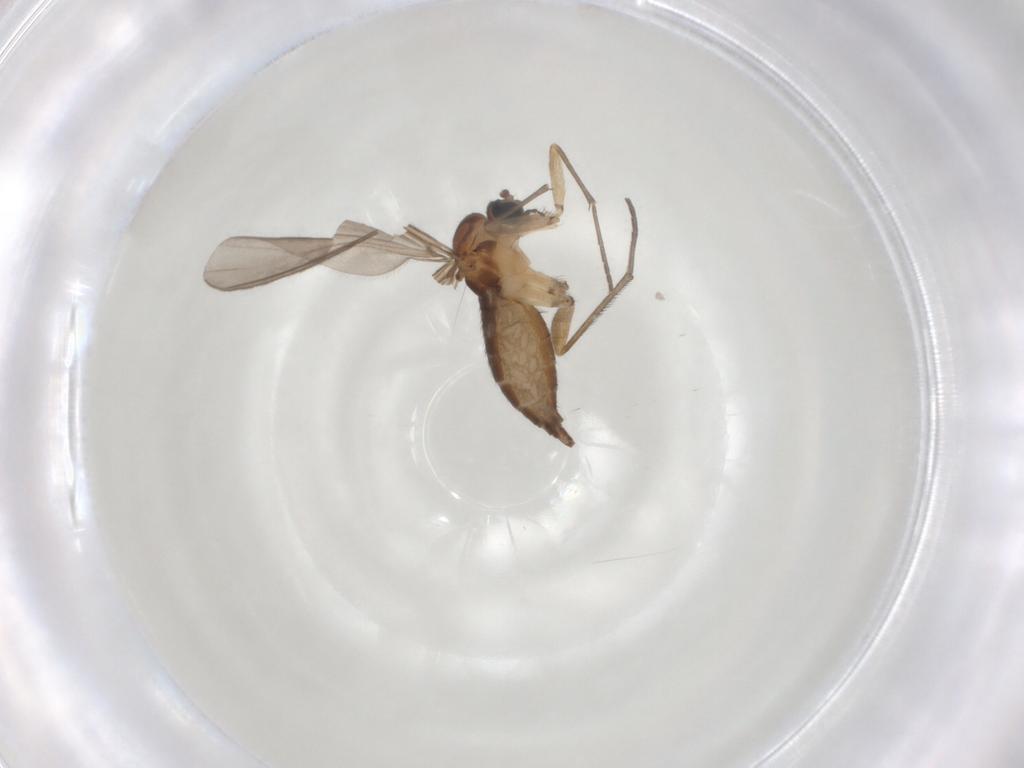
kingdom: Animalia
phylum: Arthropoda
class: Insecta
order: Diptera
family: Sciaridae
